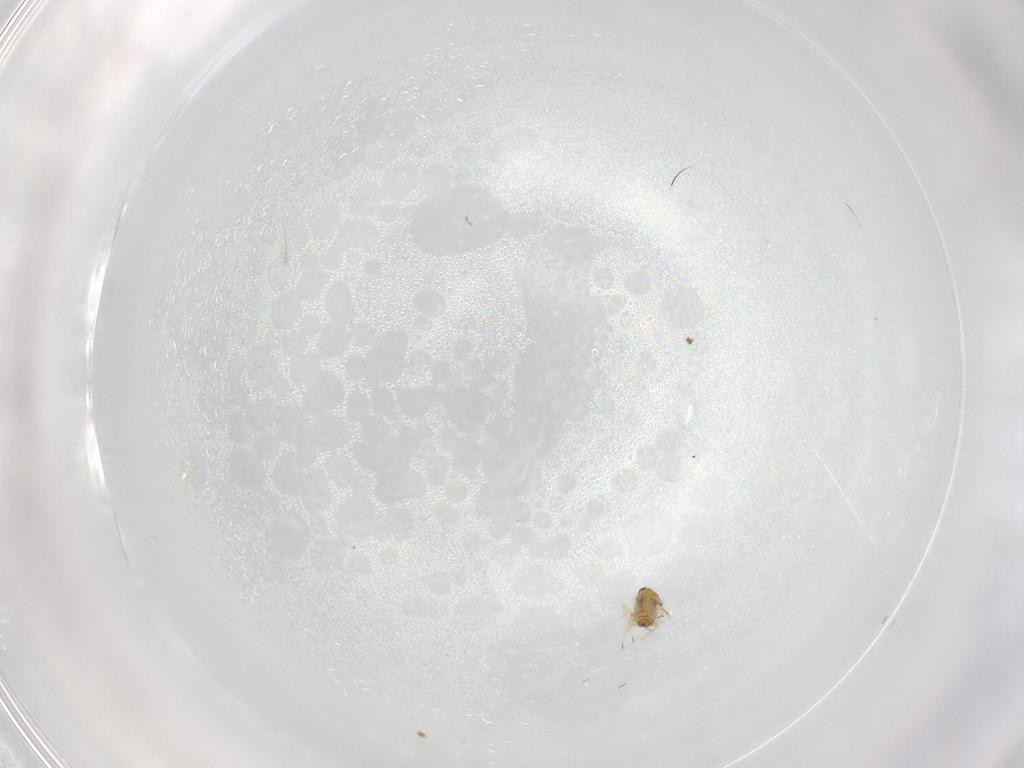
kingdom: Animalia
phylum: Arthropoda
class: Insecta
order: Hymenoptera
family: Trichogrammatidae
